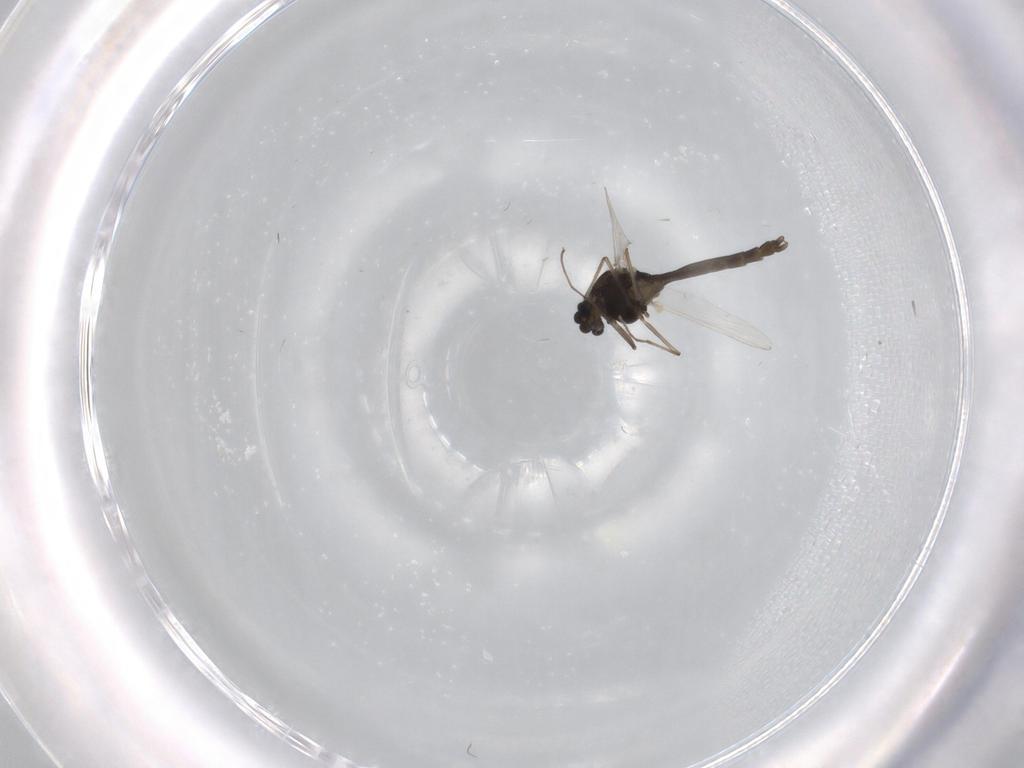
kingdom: Animalia
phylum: Arthropoda
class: Insecta
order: Diptera
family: Chironomidae
